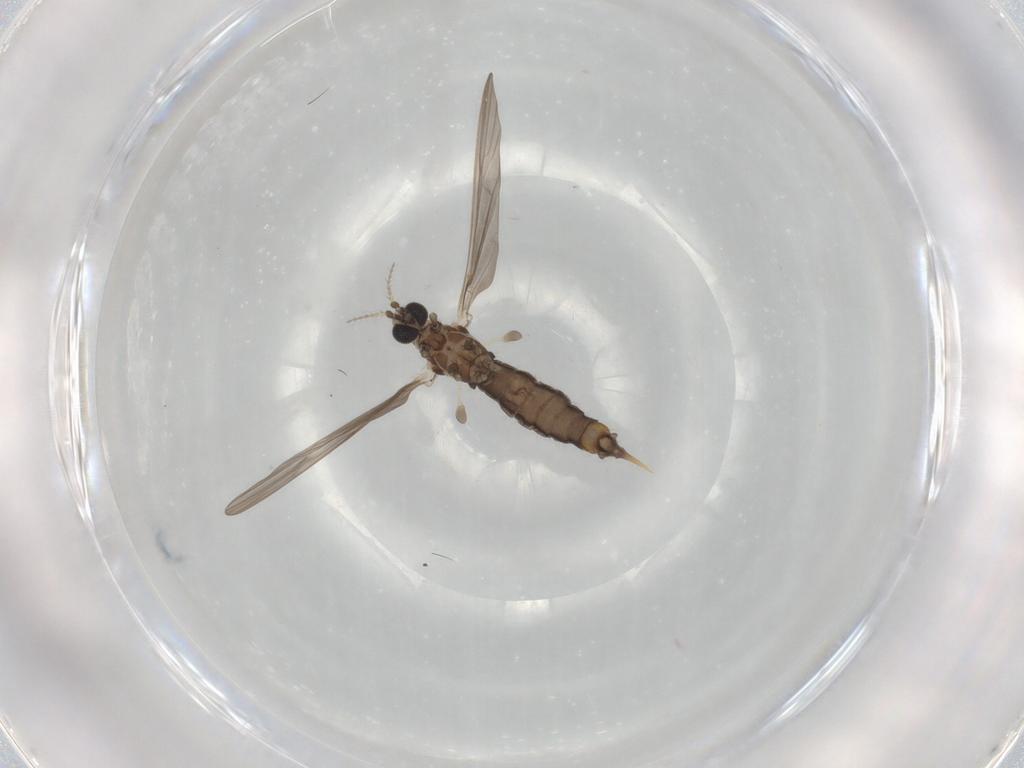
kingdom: Animalia
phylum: Arthropoda
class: Insecta
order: Diptera
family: Limoniidae
